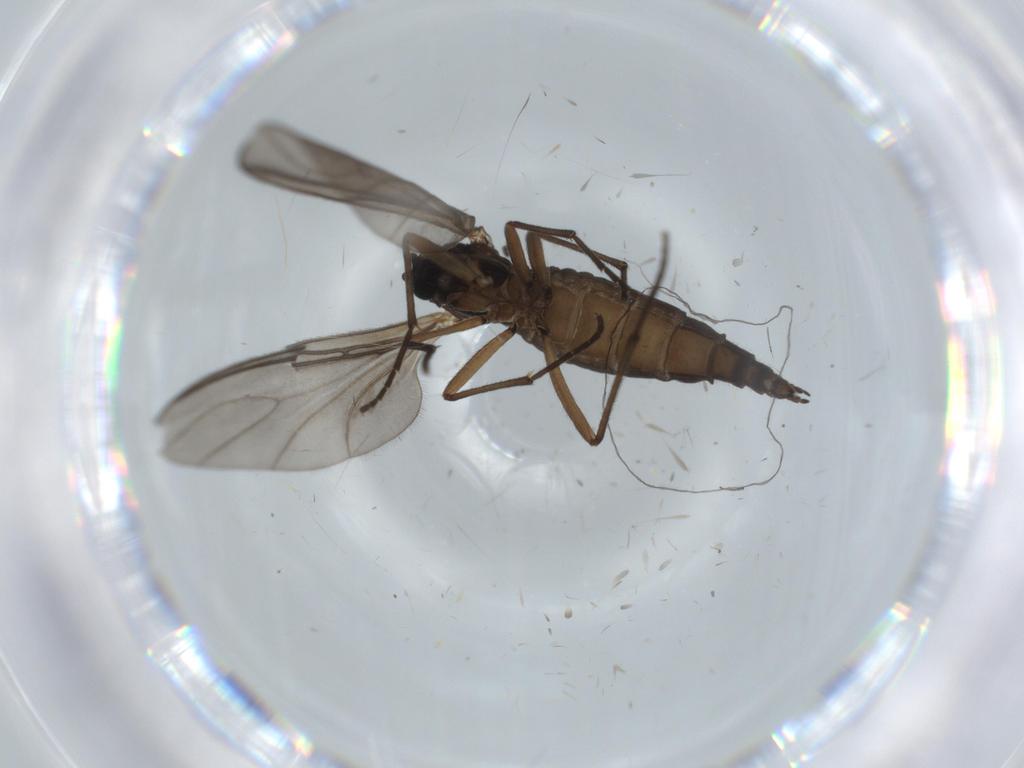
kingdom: Animalia
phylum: Arthropoda
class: Insecta
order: Diptera
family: Sciaridae
